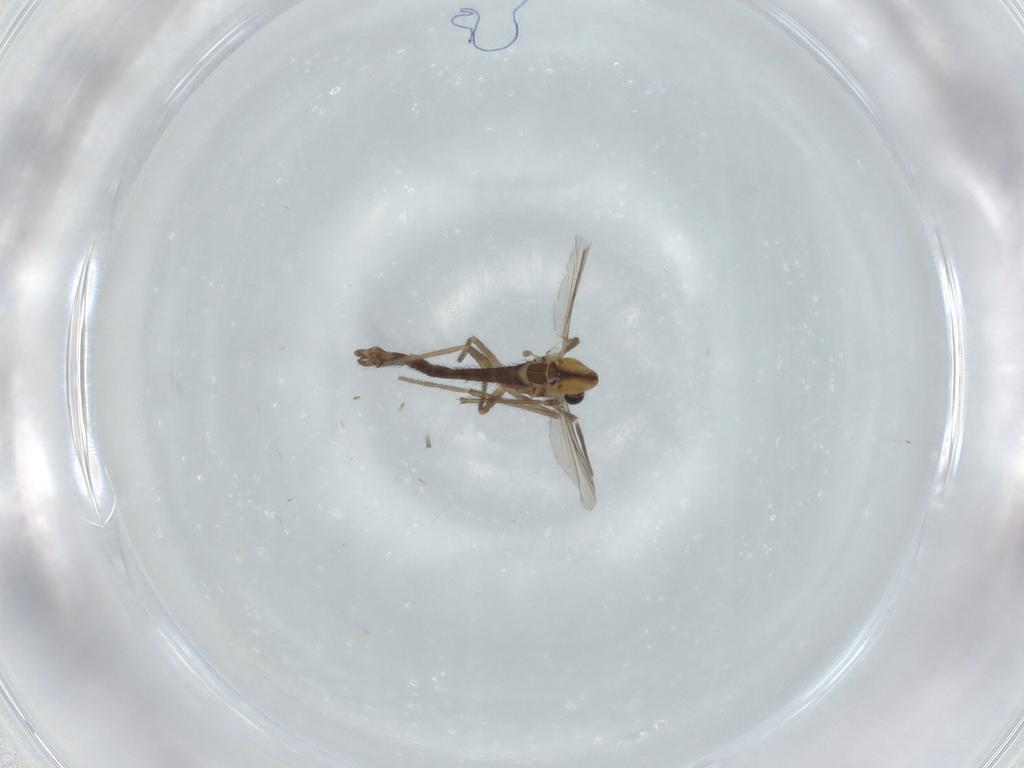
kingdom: Animalia
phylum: Arthropoda
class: Insecta
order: Diptera
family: Chironomidae
